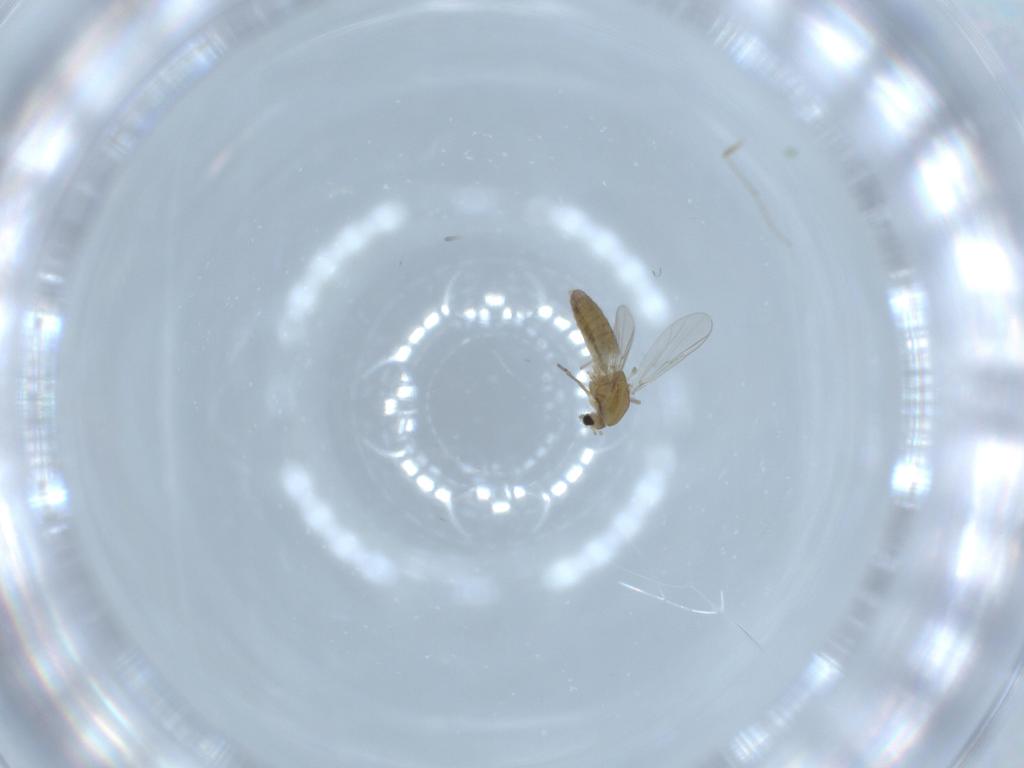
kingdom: Animalia
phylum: Arthropoda
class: Insecta
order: Diptera
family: Chironomidae
